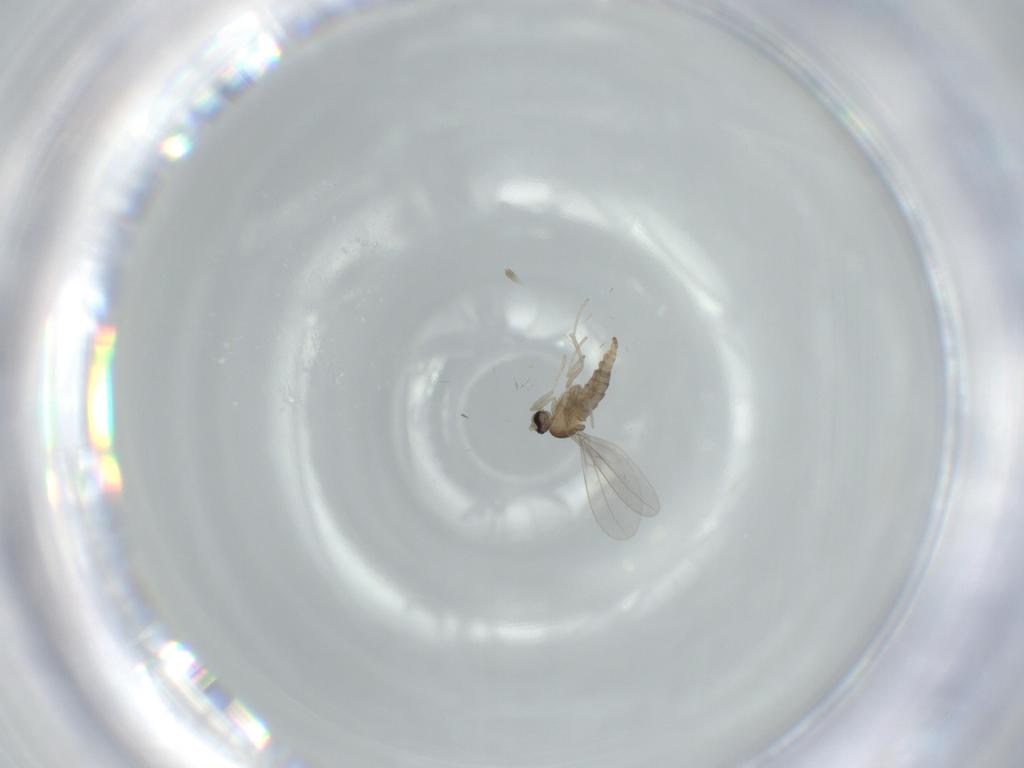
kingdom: Animalia
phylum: Arthropoda
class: Insecta
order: Diptera
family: Cecidomyiidae
